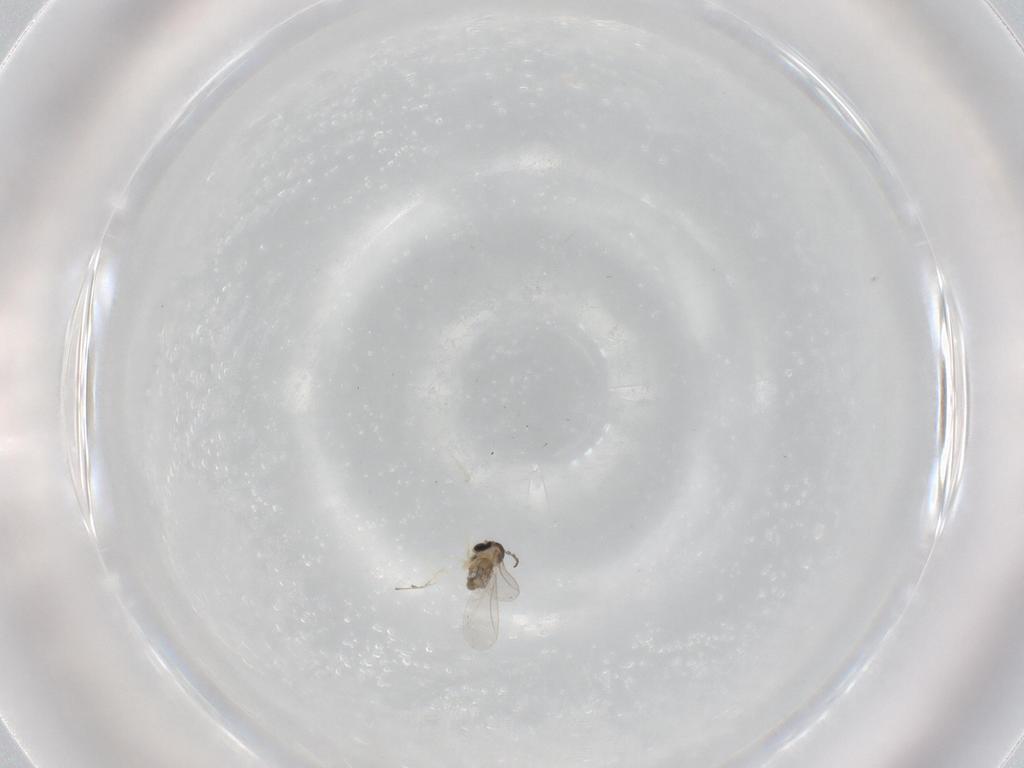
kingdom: Animalia
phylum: Arthropoda
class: Insecta
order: Diptera
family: Cecidomyiidae
